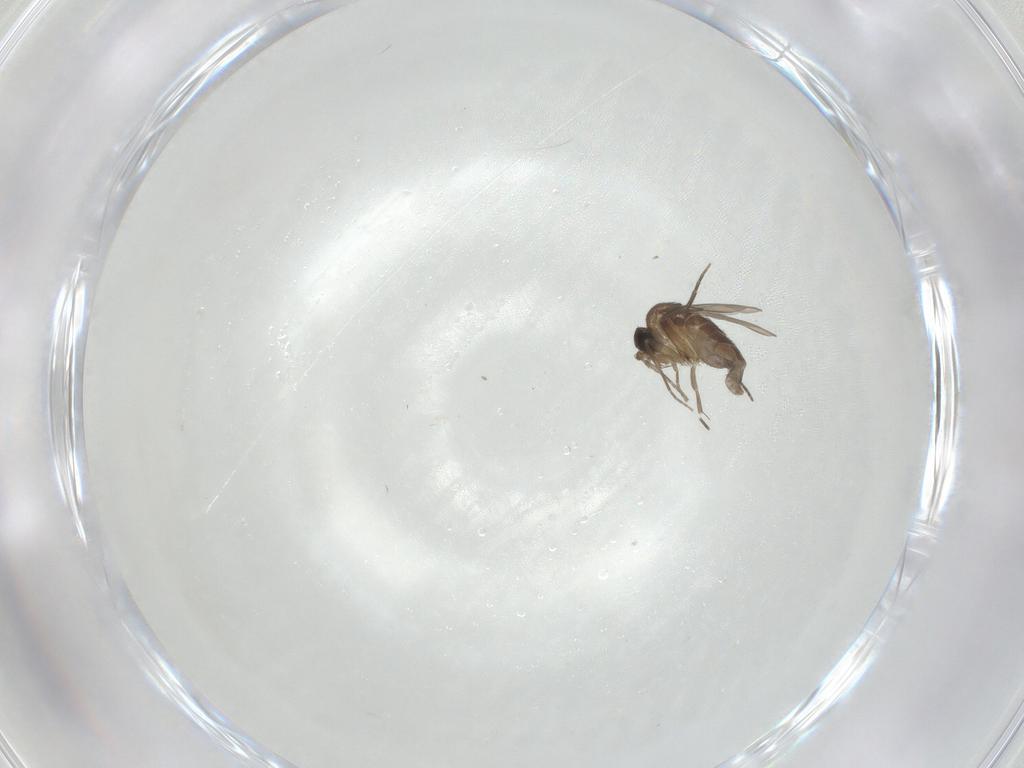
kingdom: Animalia
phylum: Arthropoda
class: Insecta
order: Diptera
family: Phoridae
